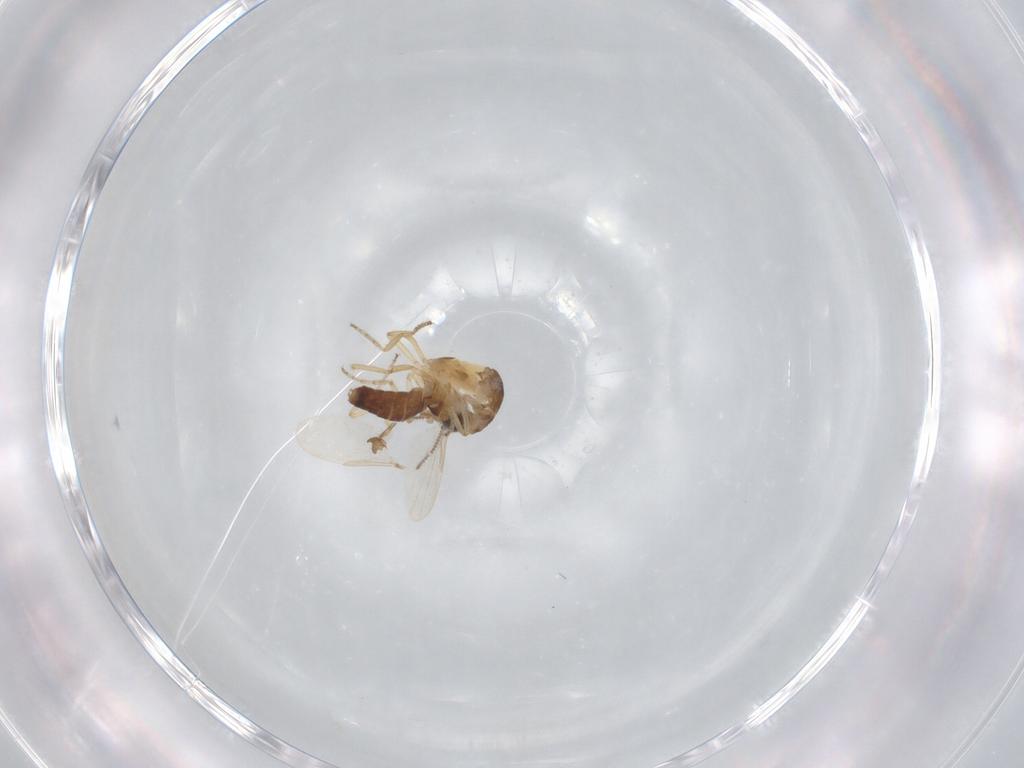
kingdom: Animalia
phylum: Arthropoda
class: Insecta
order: Diptera
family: Ceratopogonidae
